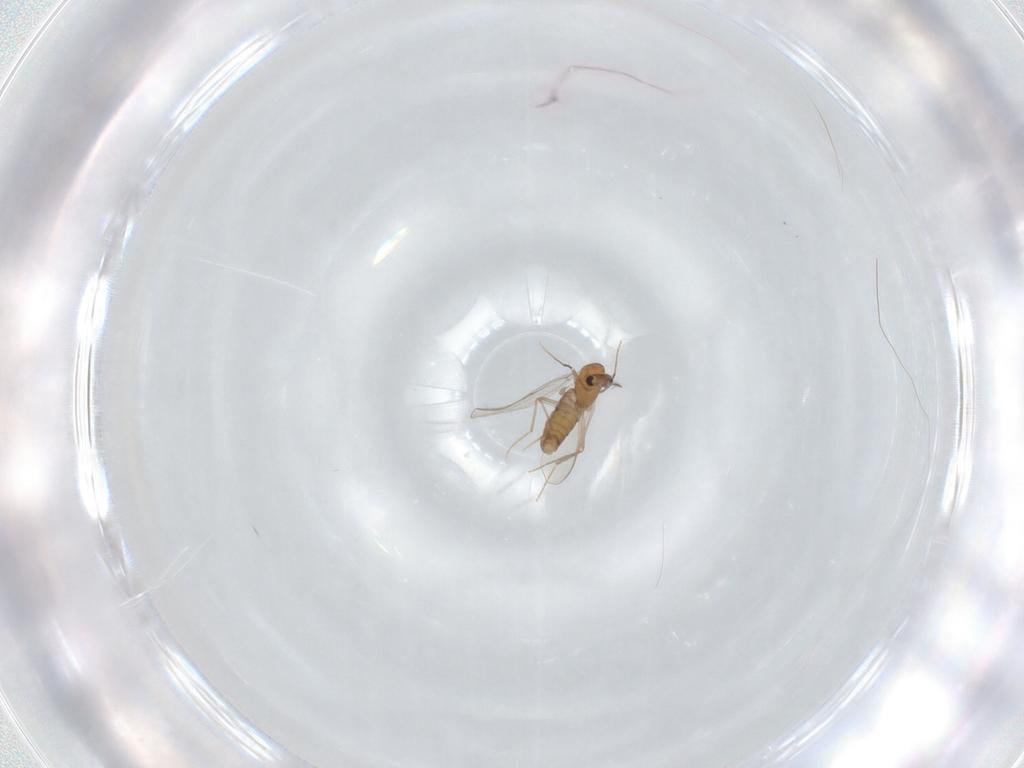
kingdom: Animalia
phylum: Arthropoda
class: Insecta
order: Diptera
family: Chironomidae
